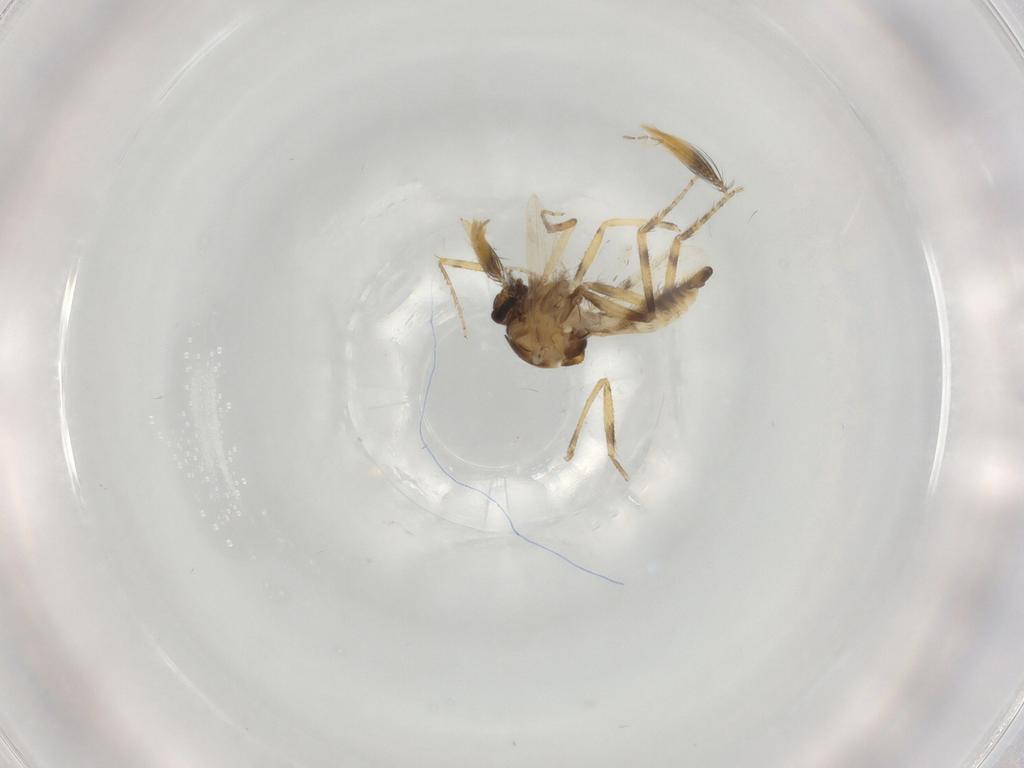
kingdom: Animalia
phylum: Arthropoda
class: Insecta
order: Diptera
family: Ceratopogonidae
